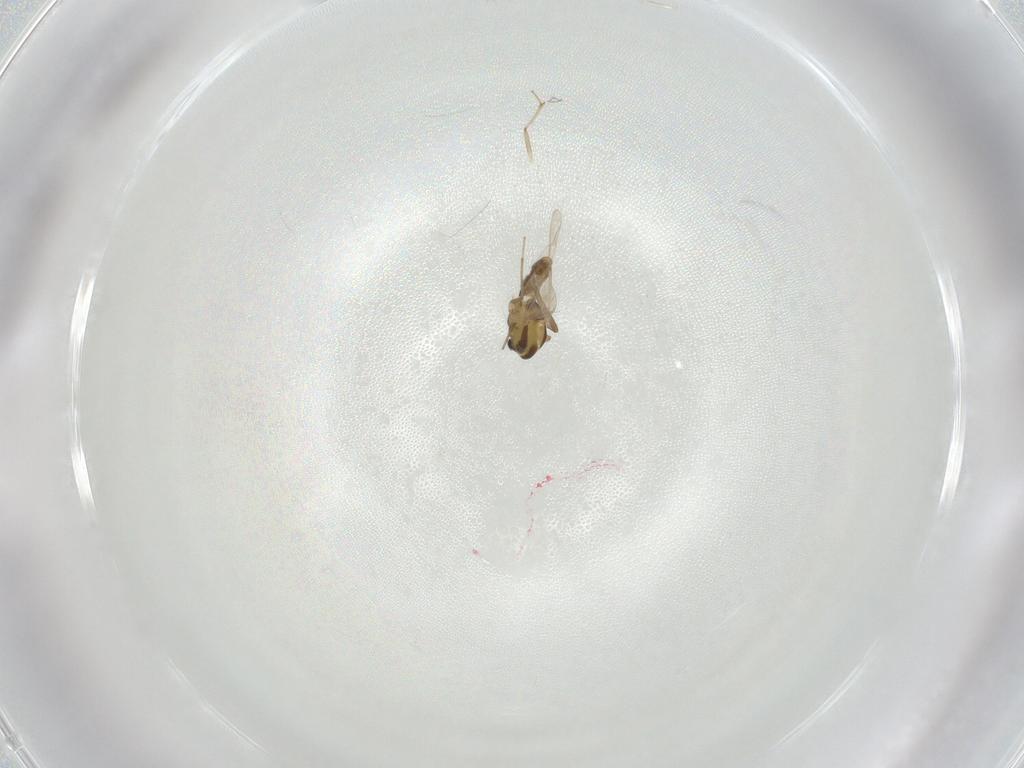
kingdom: Animalia
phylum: Arthropoda
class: Insecta
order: Diptera
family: Chironomidae
